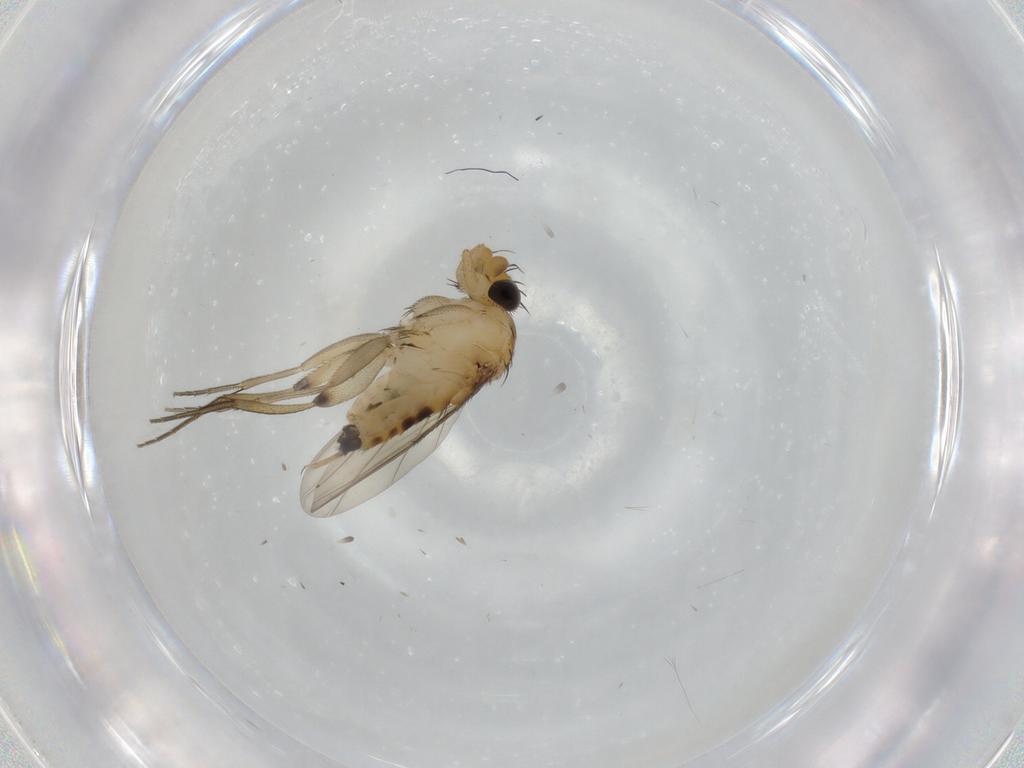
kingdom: Animalia
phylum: Arthropoda
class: Insecta
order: Diptera
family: Phoridae
